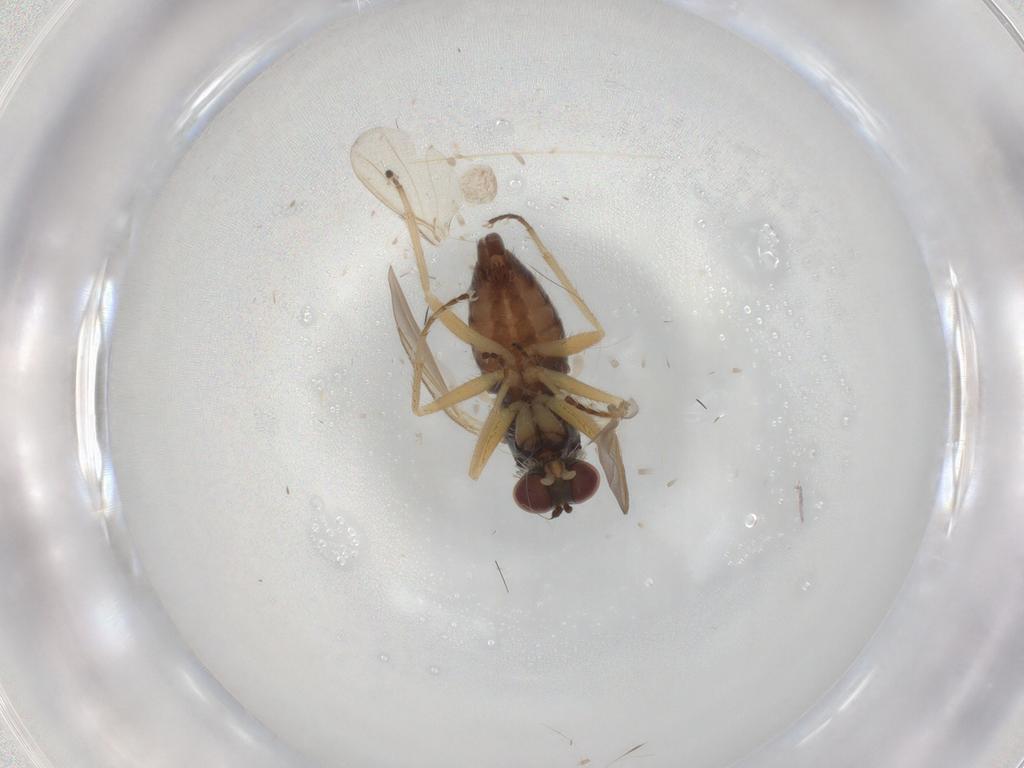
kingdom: Animalia
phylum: Arthropoda
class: Insecta
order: Diptera
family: Dolichopodidae
